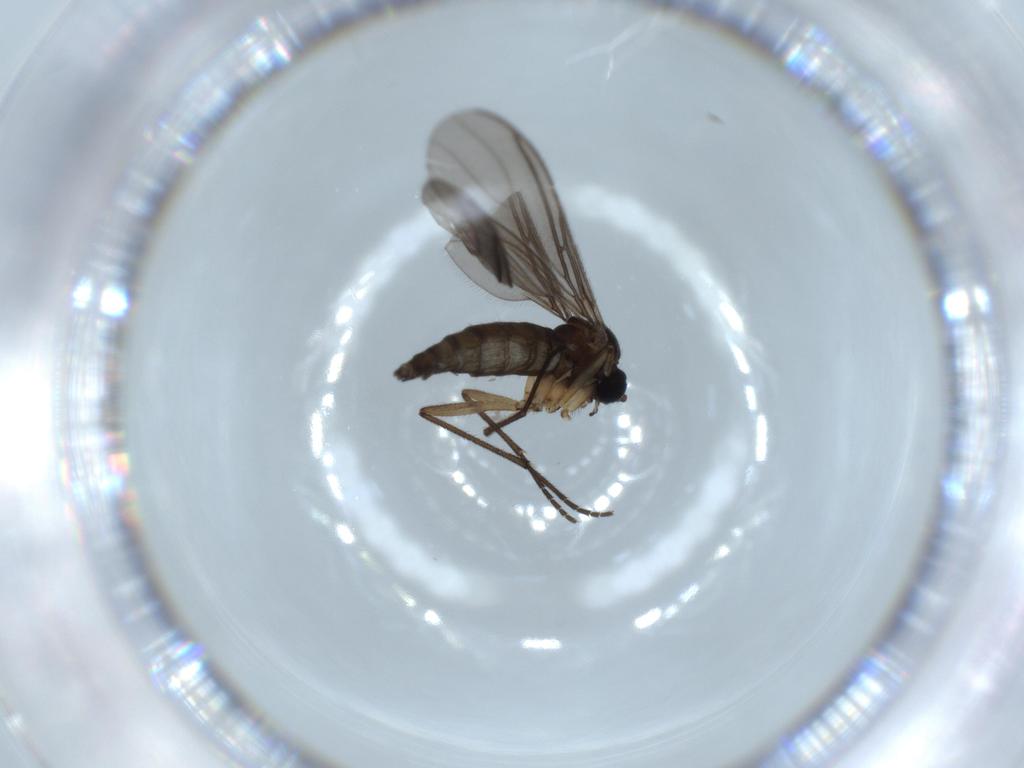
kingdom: Animalia
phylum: Arthropoda
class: Insecta
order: Diptera
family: Sciaridae
